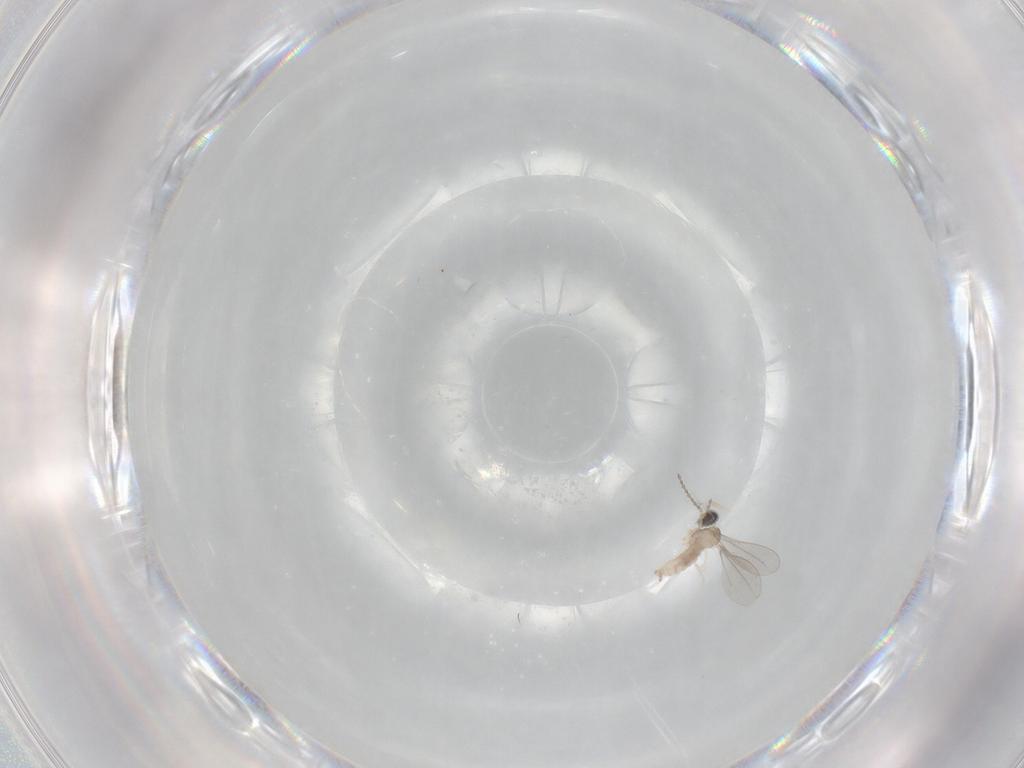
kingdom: Animalia
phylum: Arthropoda
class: Insecta
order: Diptera
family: Cecidomyiidae
